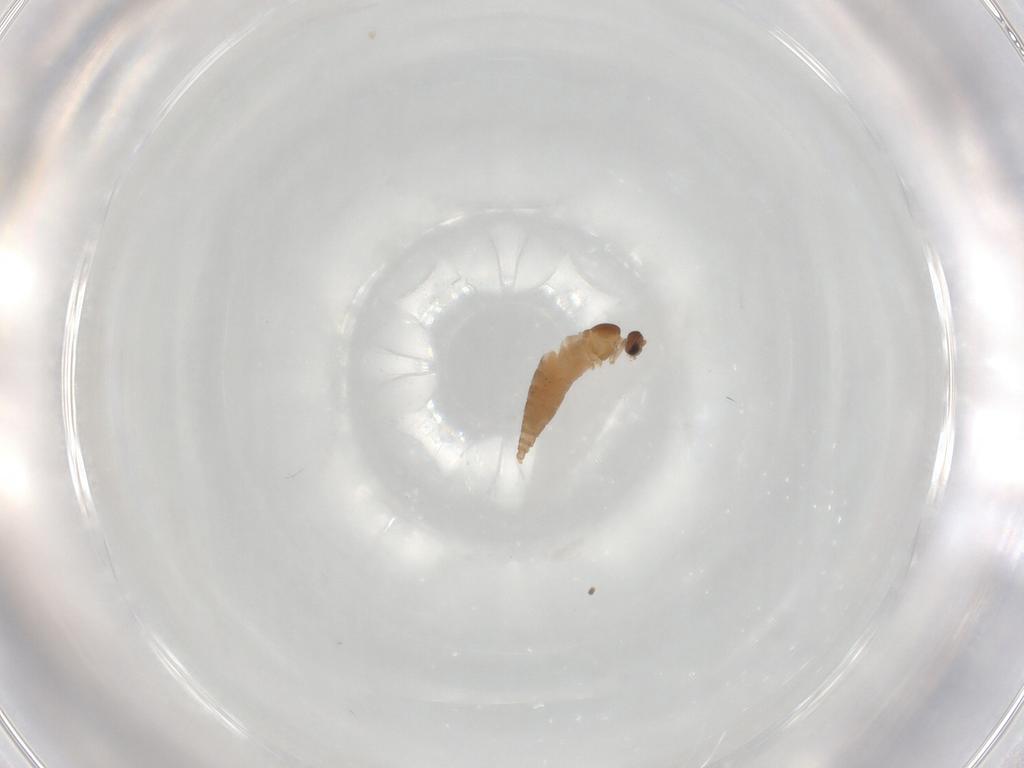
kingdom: Animalia
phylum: Arthropoda
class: Insecta
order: Diptera
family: Cecidomyiidae
